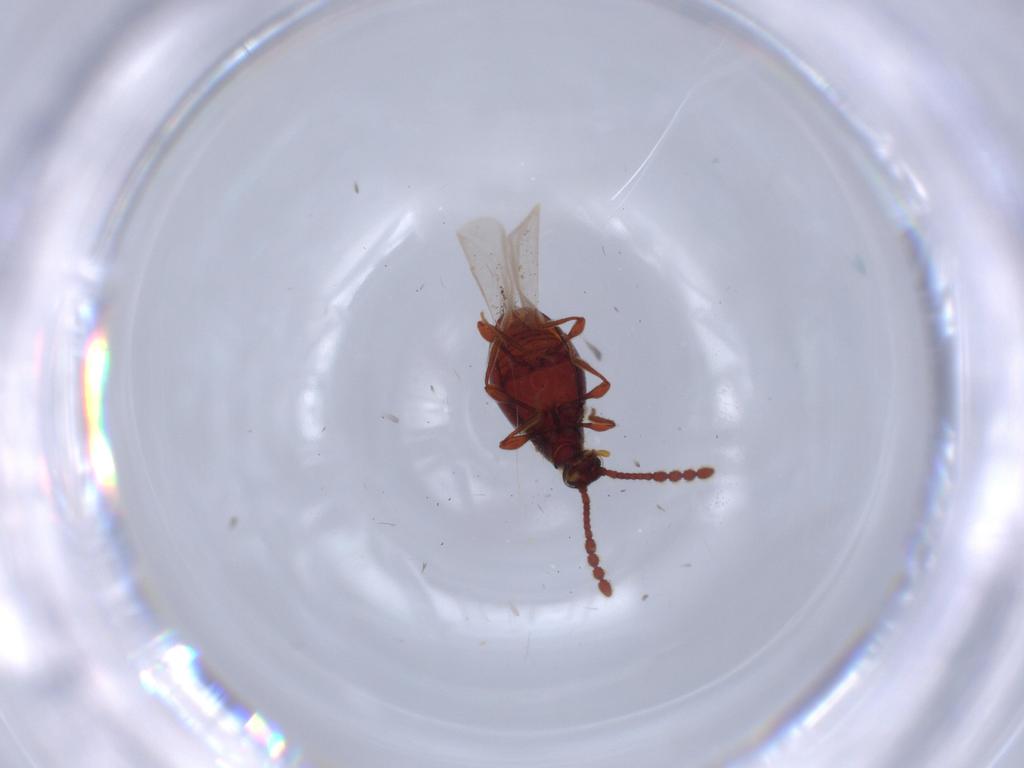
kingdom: Animalia
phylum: Arthropoda
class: Insecta
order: Coleoptera
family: Staphylinidae
